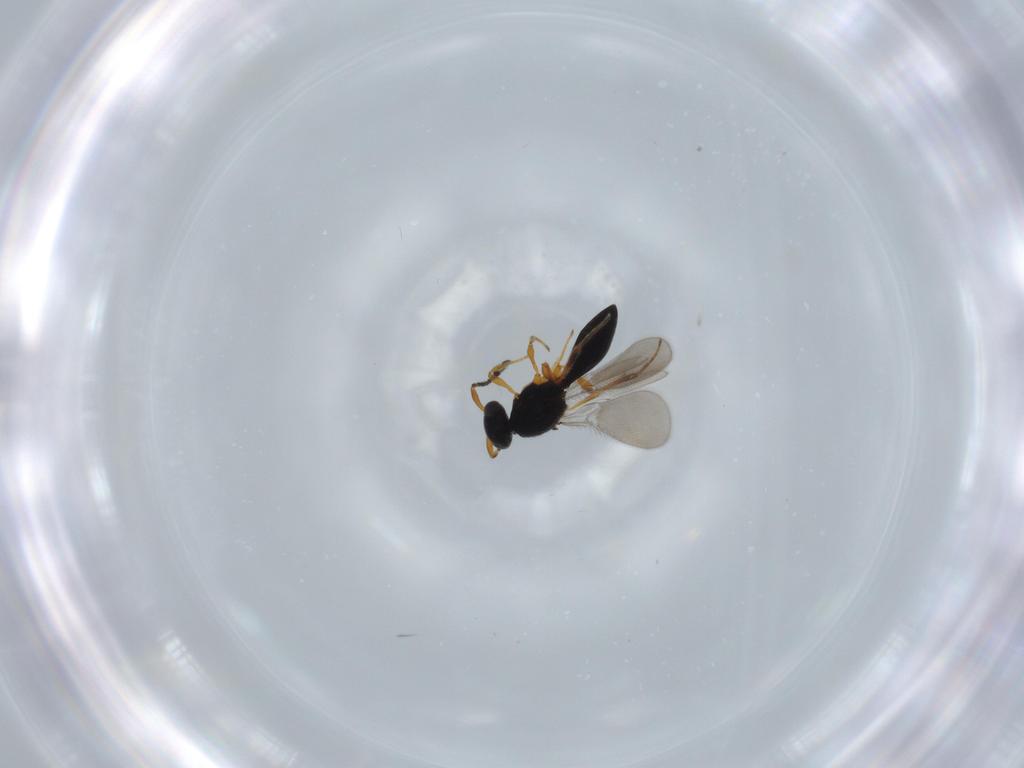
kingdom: Animalia
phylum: Arthropoda
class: Insecta
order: Hymenoptera
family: Platygastridae
